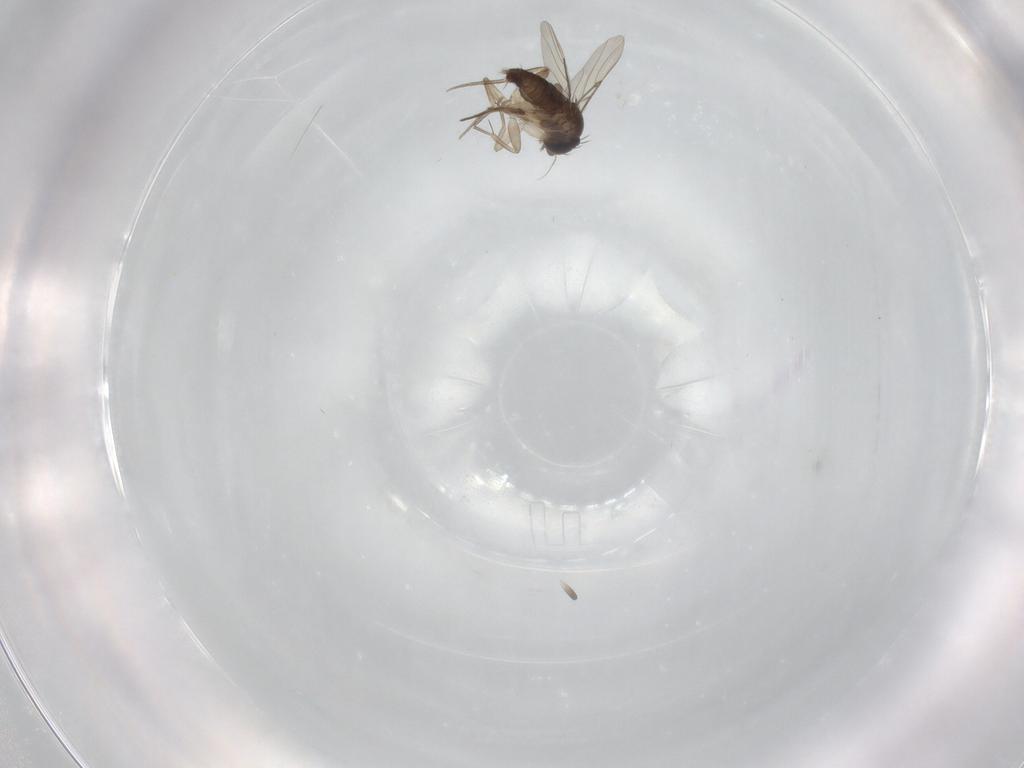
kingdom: Animalia
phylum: Arthropoda
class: Insecta
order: Diptera
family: Phoridae
